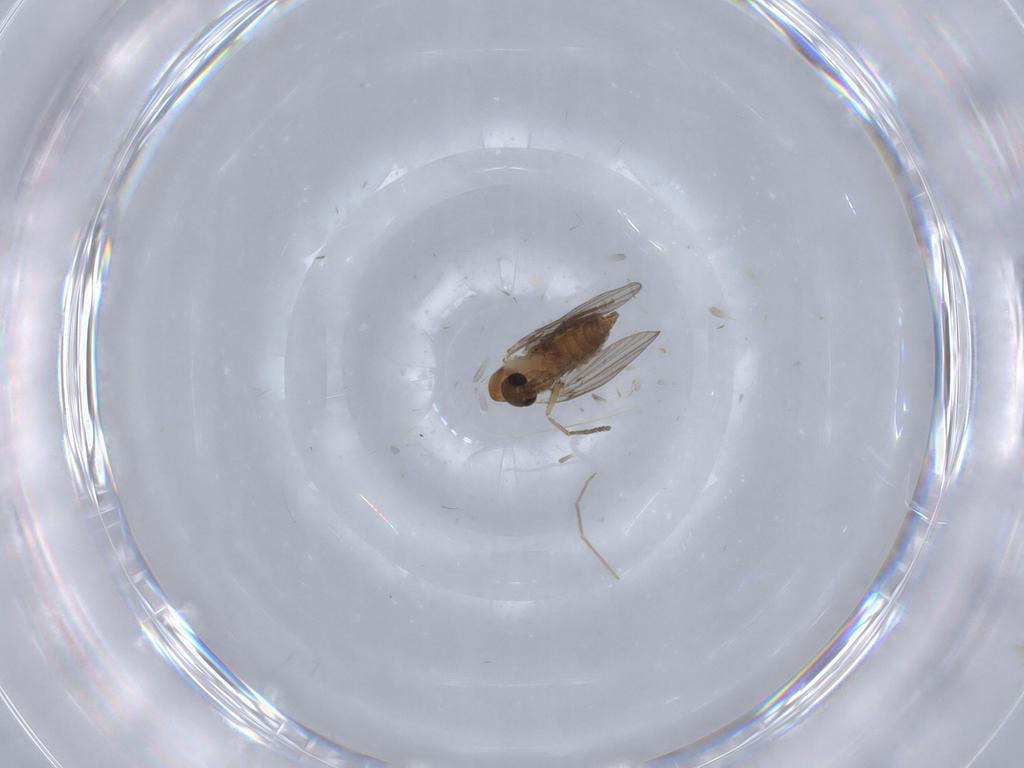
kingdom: Animalia
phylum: Arthropoda
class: Insecta
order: Diptera
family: Chironomidae
